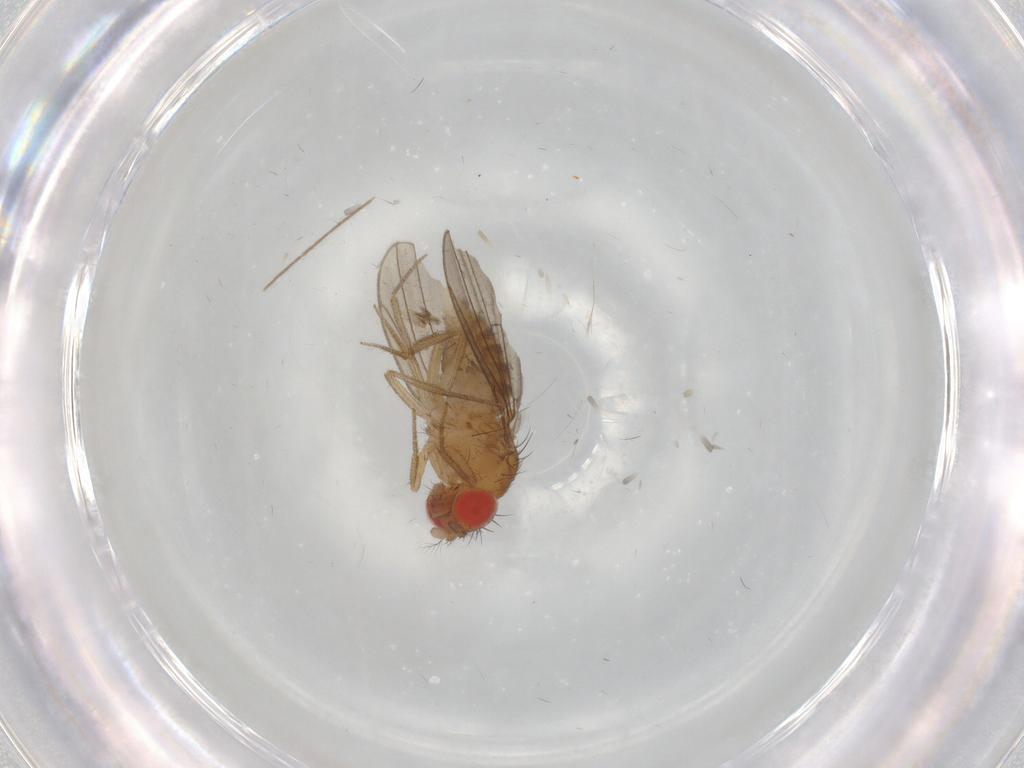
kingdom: Animalia
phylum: Arthropoda
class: Insecta
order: Diptera
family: Drosophilidae
